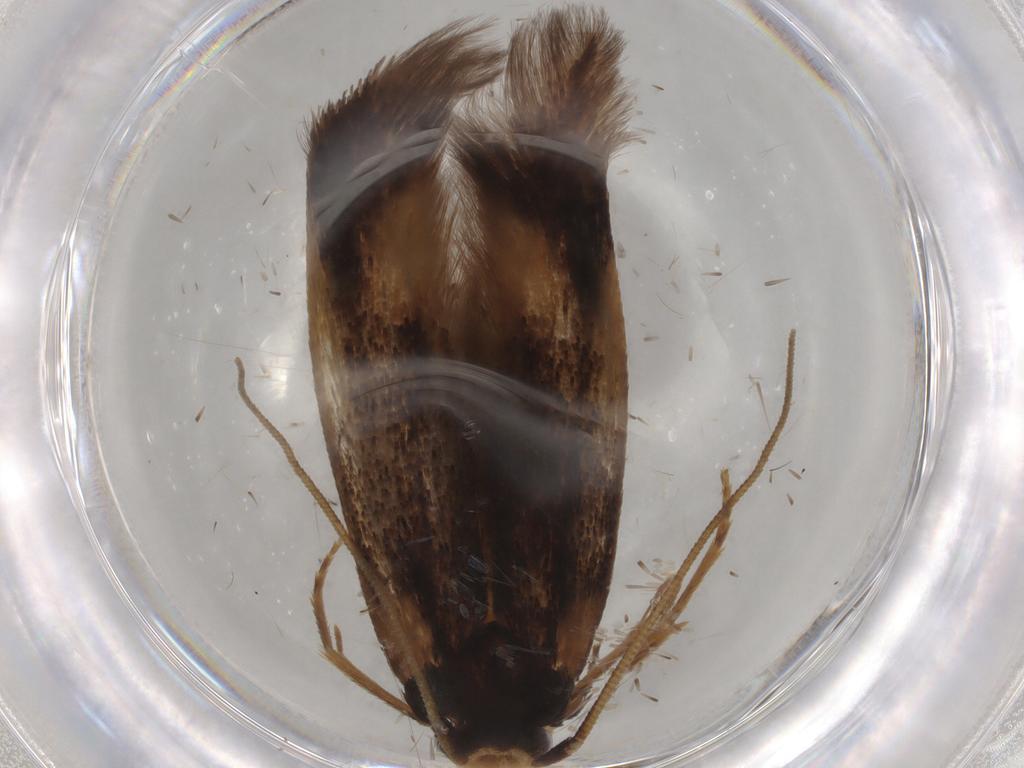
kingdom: Animalia
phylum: Arthropoda
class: Insecta
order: Lepidoptera
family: Tineidae
